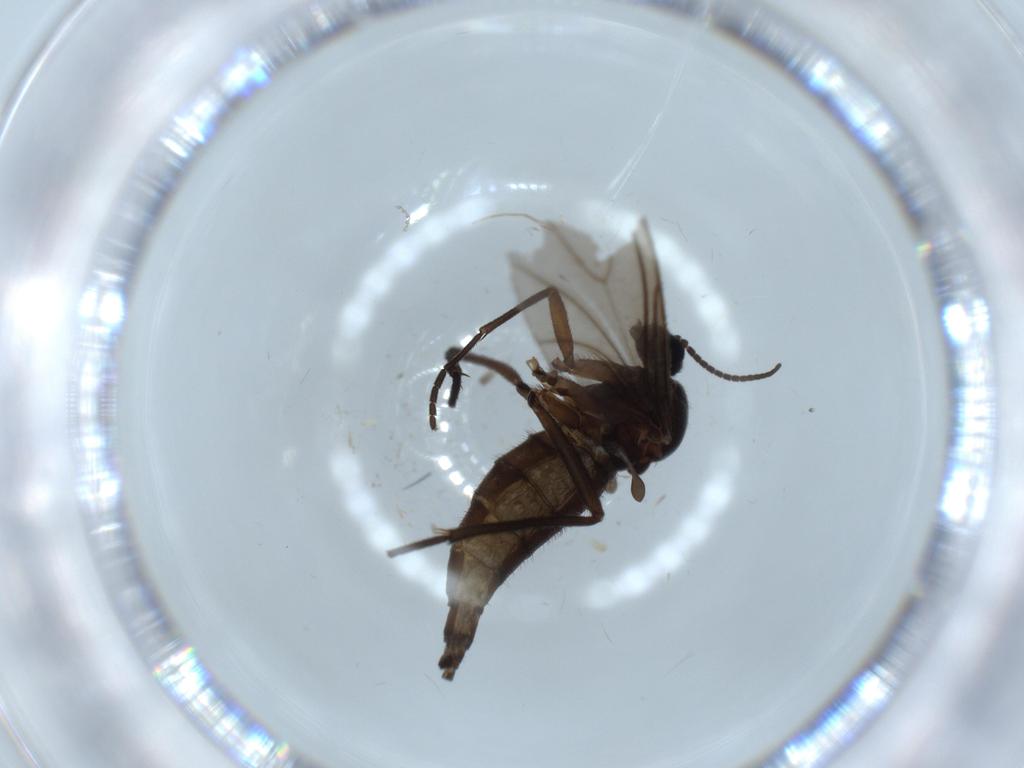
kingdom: Animalia
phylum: Arthropoda
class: Insecta
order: Diptera
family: Sciaridae
